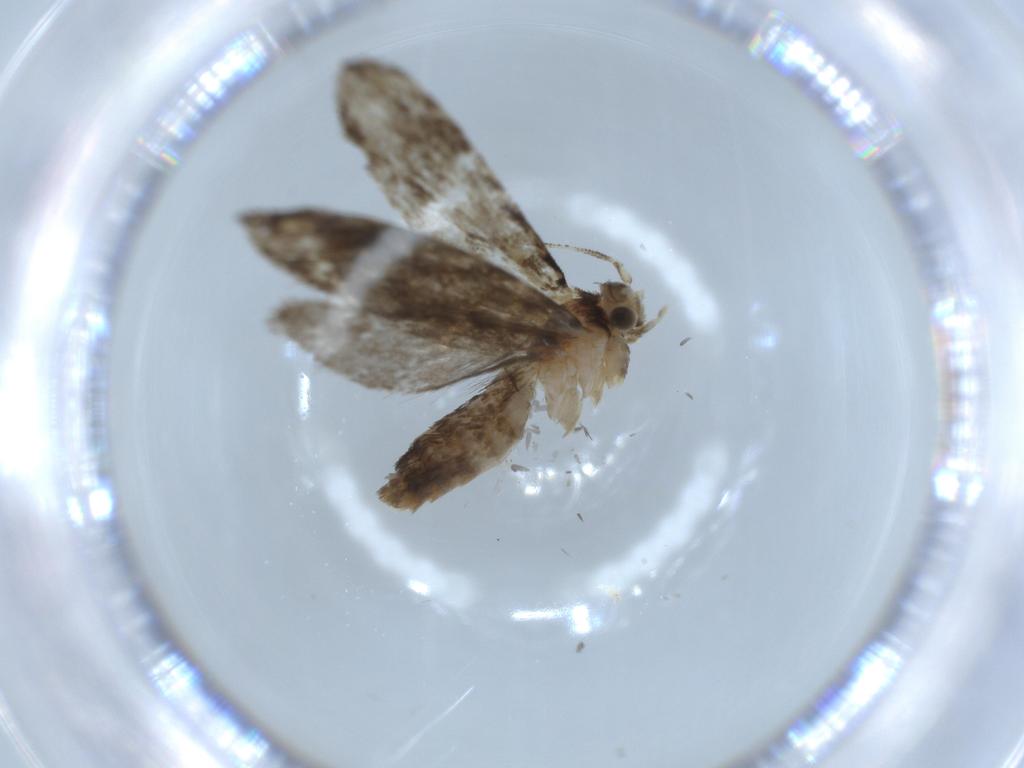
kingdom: Animalia
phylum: Arthropoda
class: Insecta
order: Lepidoptera
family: Tineidae
